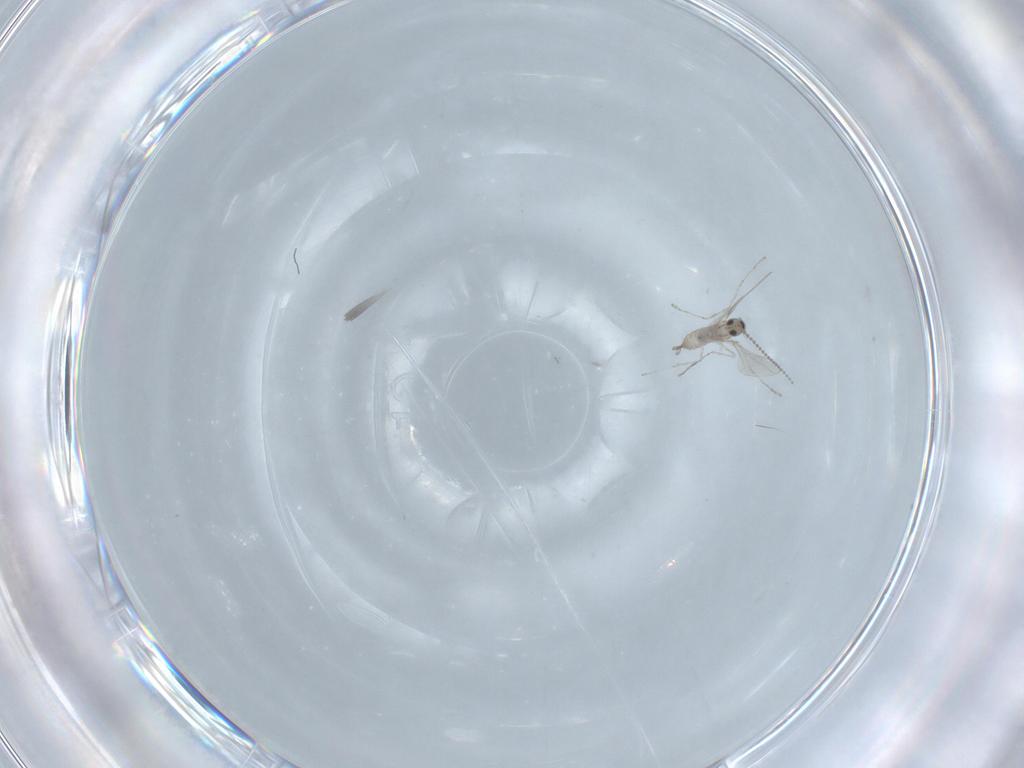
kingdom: Animalia
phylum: Arthropoda
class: Insecta
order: Diptera
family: Cecidomyiidae
